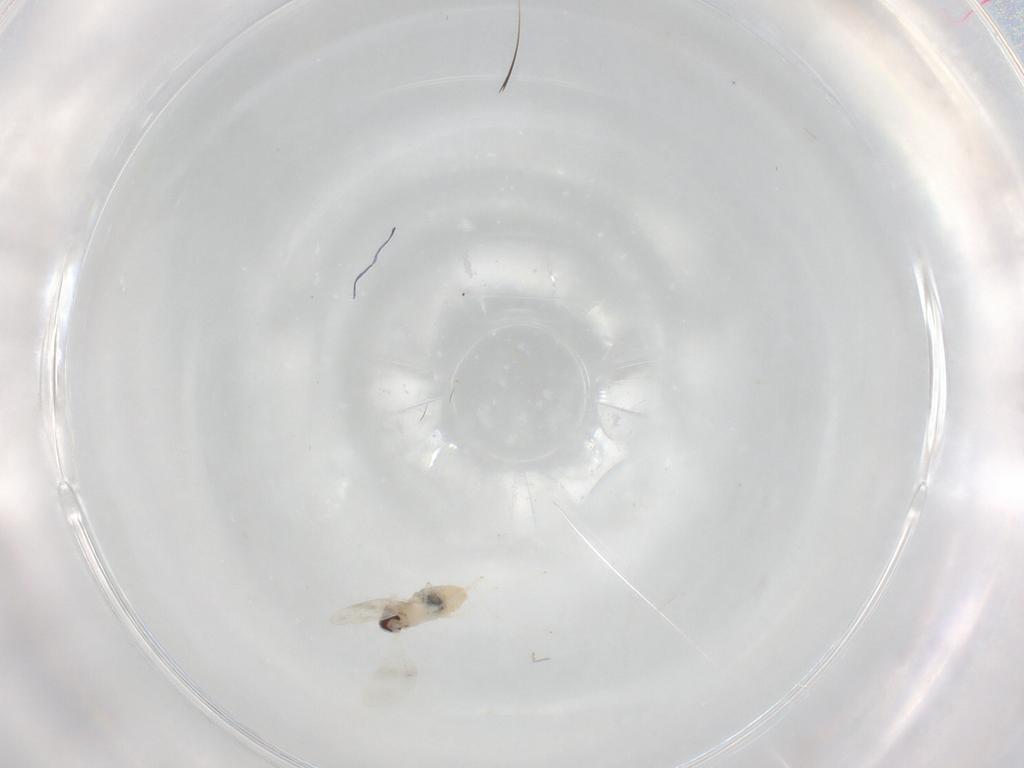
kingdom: Animalia
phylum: Arthropoda
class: Insecta
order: Diptera
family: Cecidomyiidae
